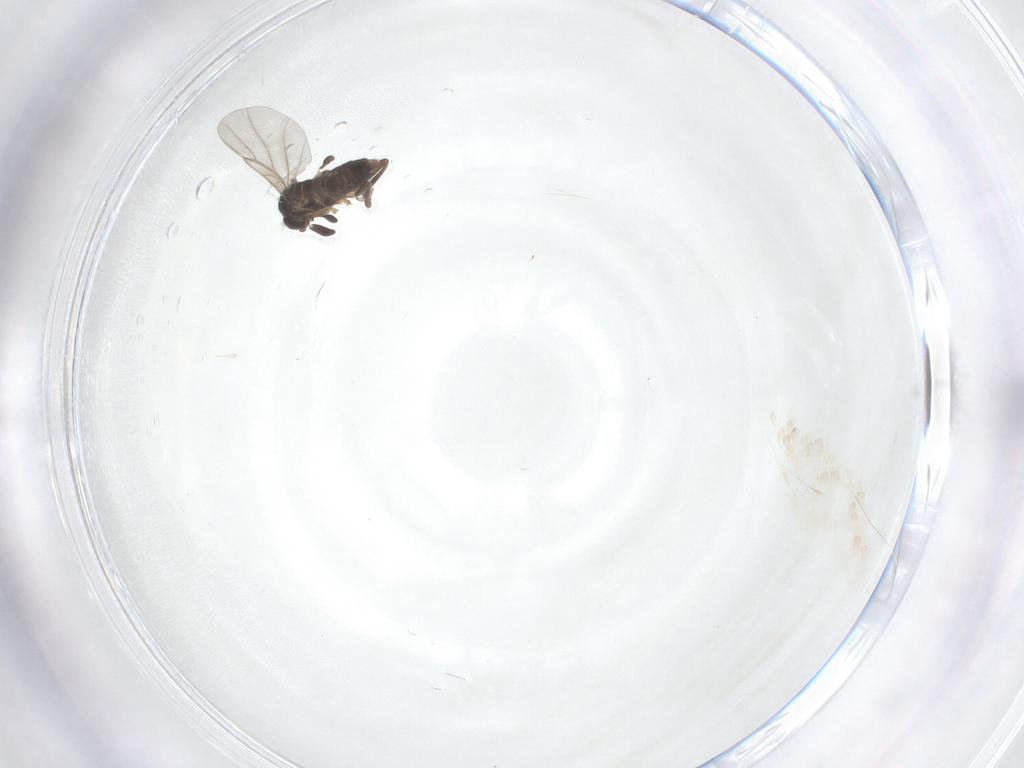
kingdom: Animalia
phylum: Arthropoda
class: Insecta
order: Diptera
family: Phoridae
